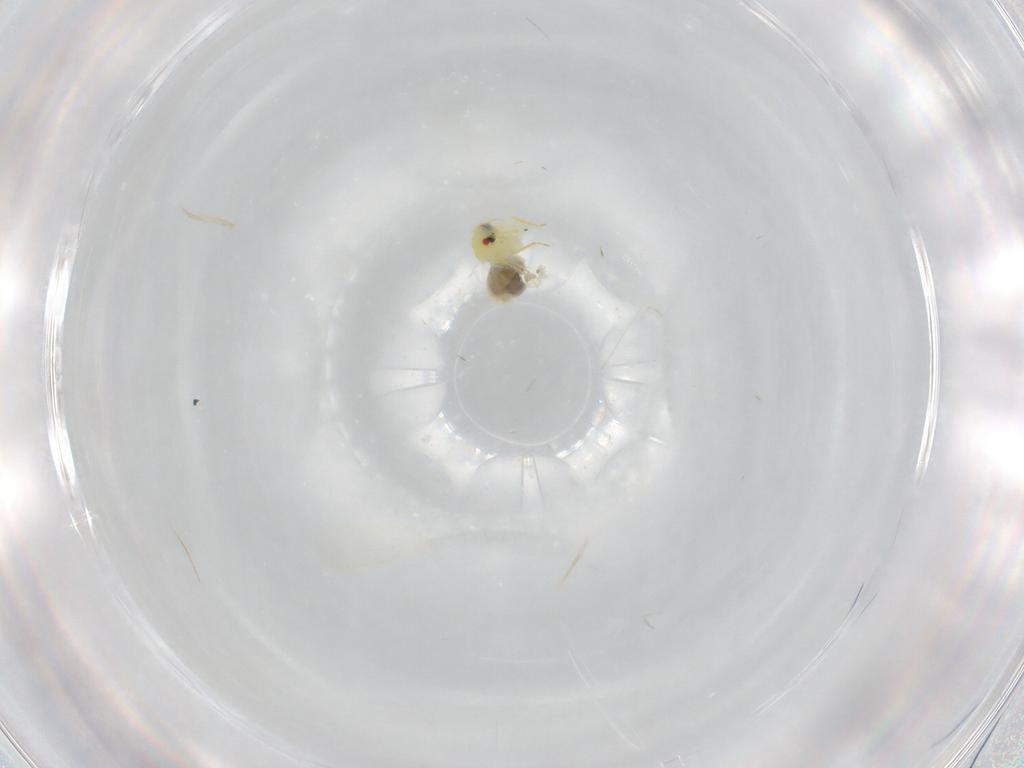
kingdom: Animalia
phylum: Arthropoda
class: Insecta
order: Hemiptera
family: Aleyrodidae
